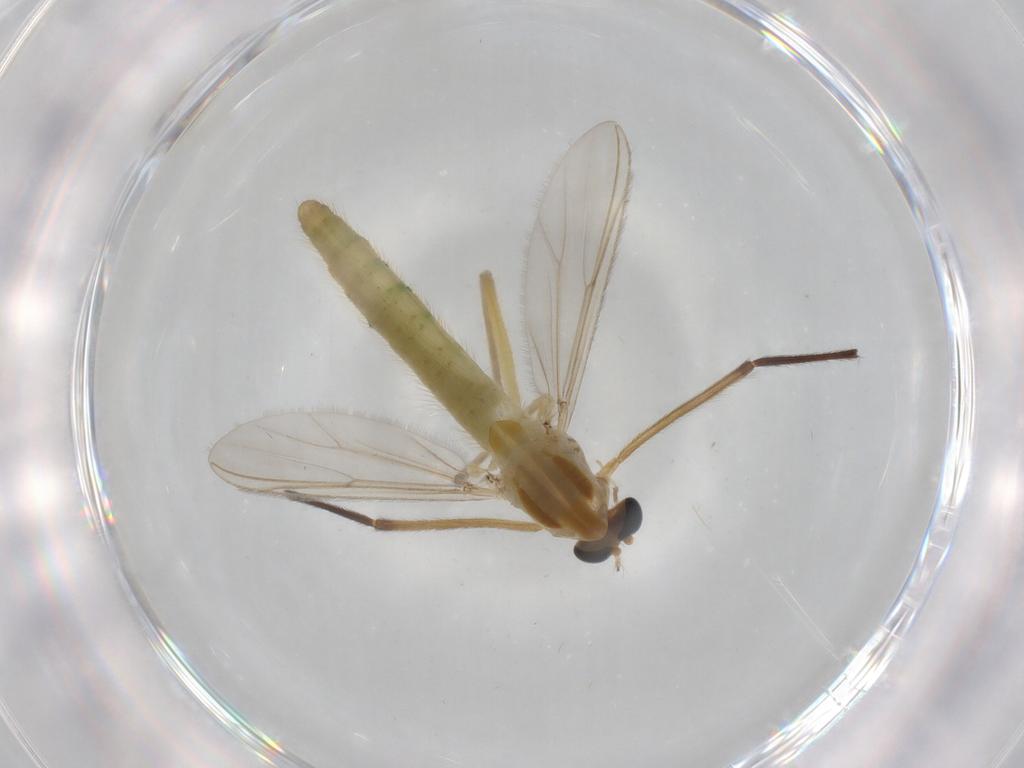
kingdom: Animalia
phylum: Arthropoda
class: Insecta
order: Diptera
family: Chironomidae
